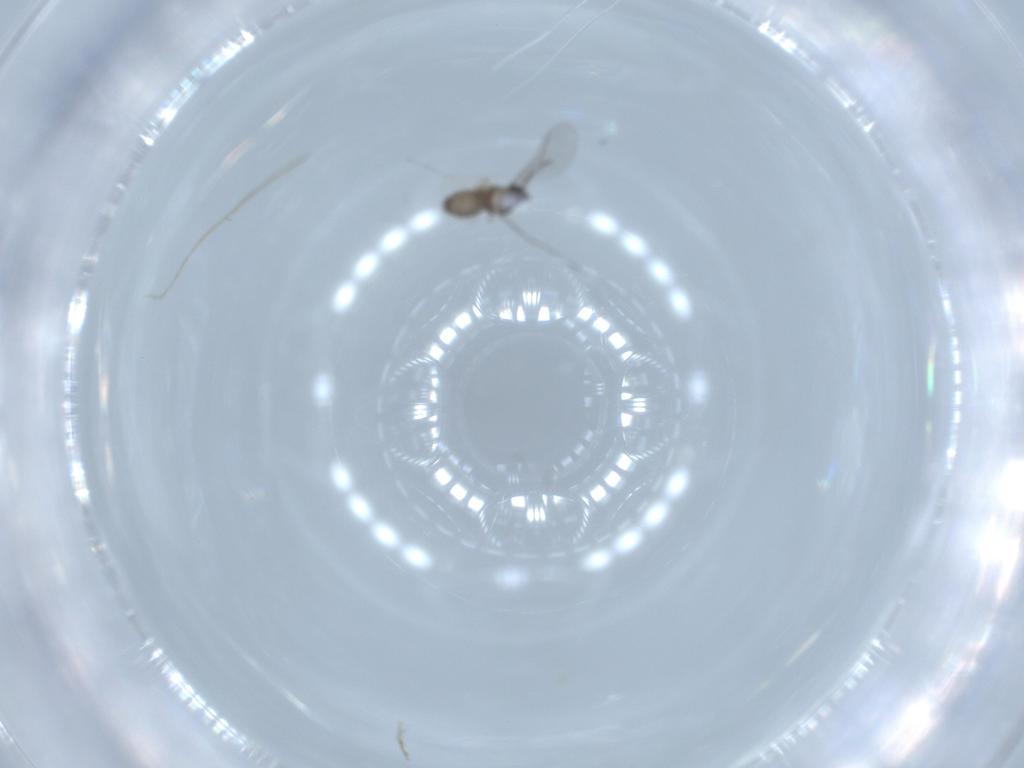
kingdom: Animalia
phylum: Arthropoda
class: Insecta
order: Diptera
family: Cecidomyiidae
